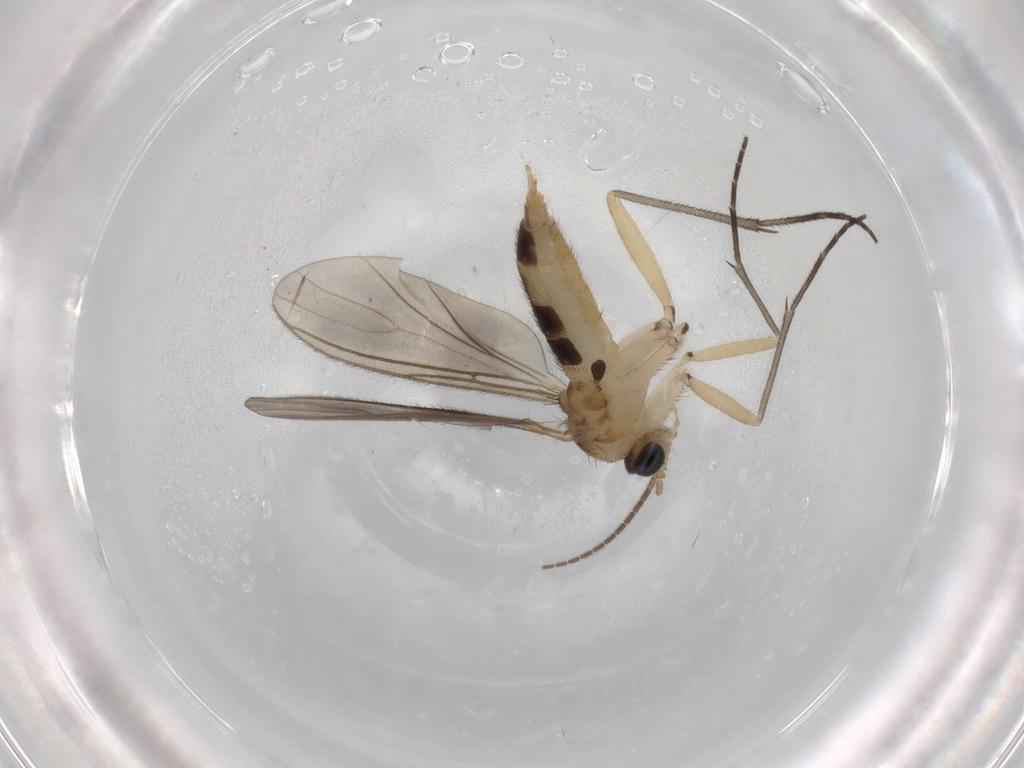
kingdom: Animalia
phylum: Arthropoda
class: Insecta
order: Diptera
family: Sciaridae
